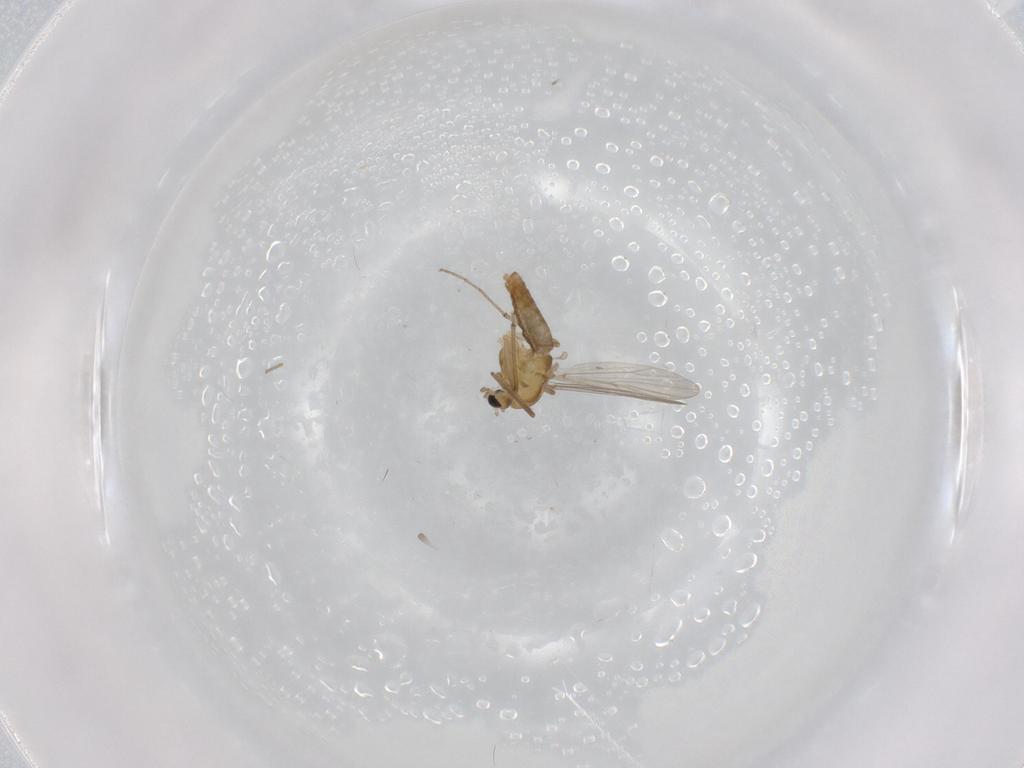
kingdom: Animalia
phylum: Arthropoda
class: Insecta
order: Diptera
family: Chironomidae
